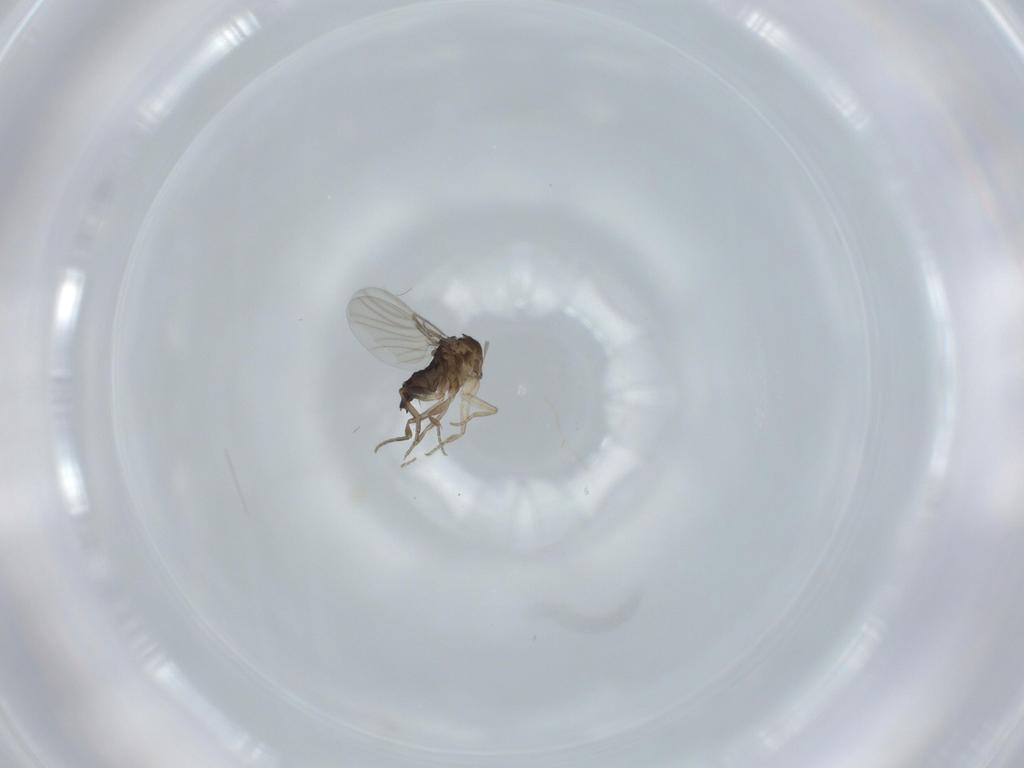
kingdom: Animalia
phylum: Arthropoda
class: Insecta
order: Diptera
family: Phoridae
